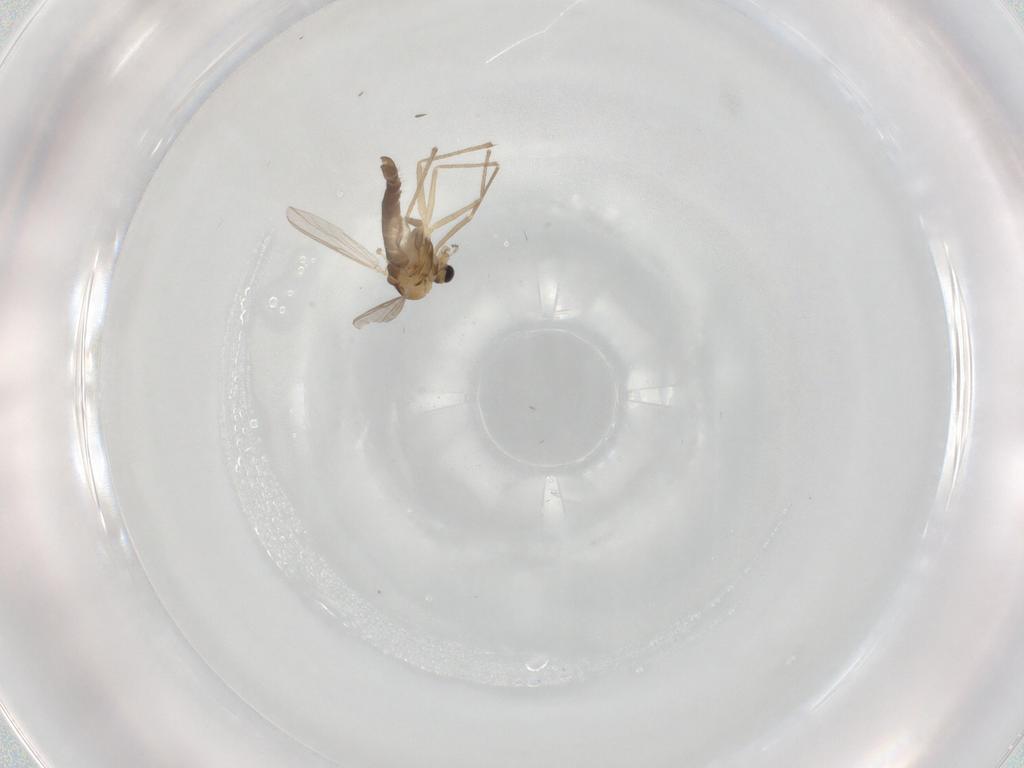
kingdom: Animalia
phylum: Arthropoda
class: Insecta
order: Diptera
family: Chironomidae
